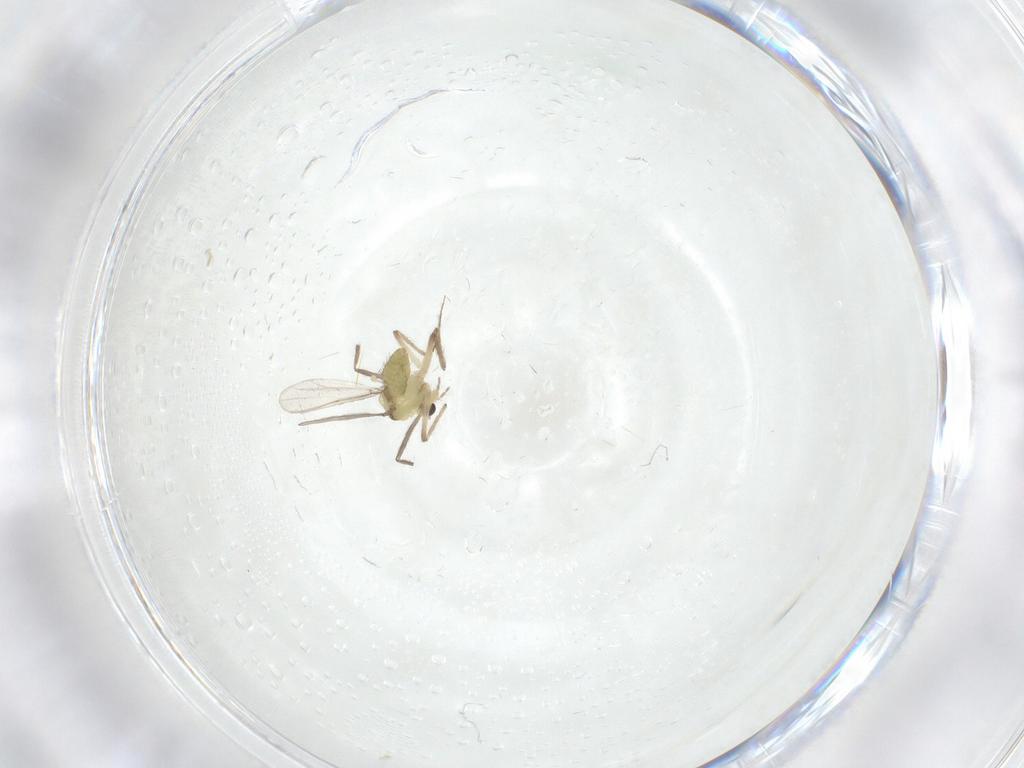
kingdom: Animalia
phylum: Arthropoda
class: Insecta
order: Diptera
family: Chironomidae
